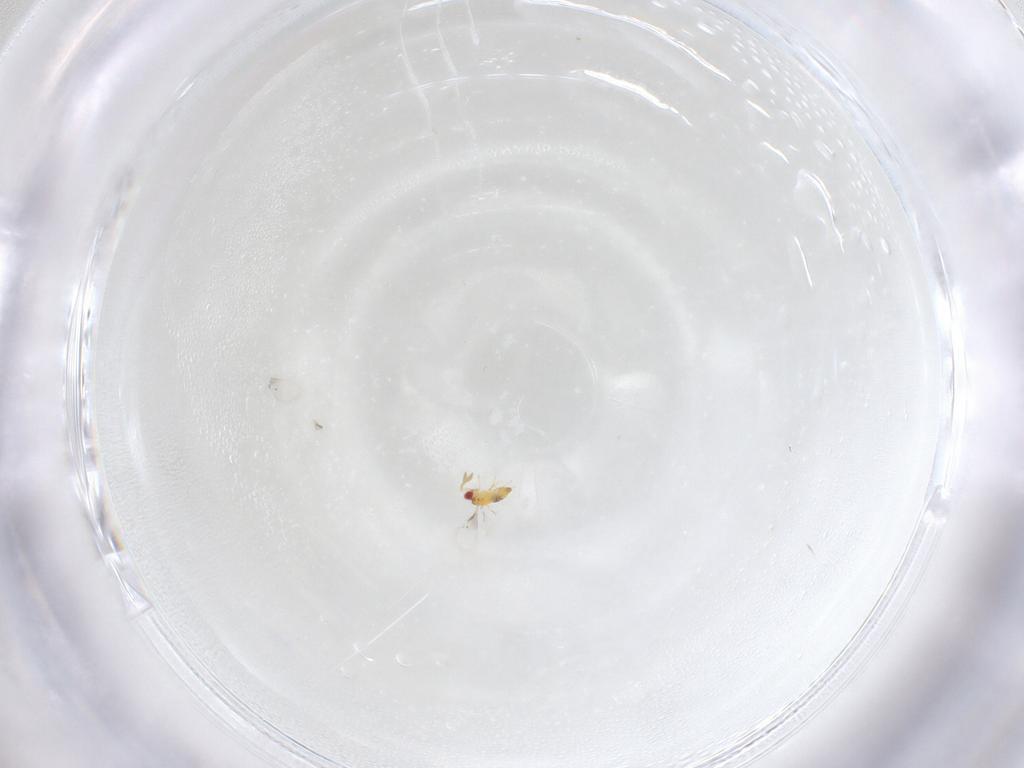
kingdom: Animalia
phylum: Arthropoda
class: Insecta
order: Hymenoptera
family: Trichogrammatidae
